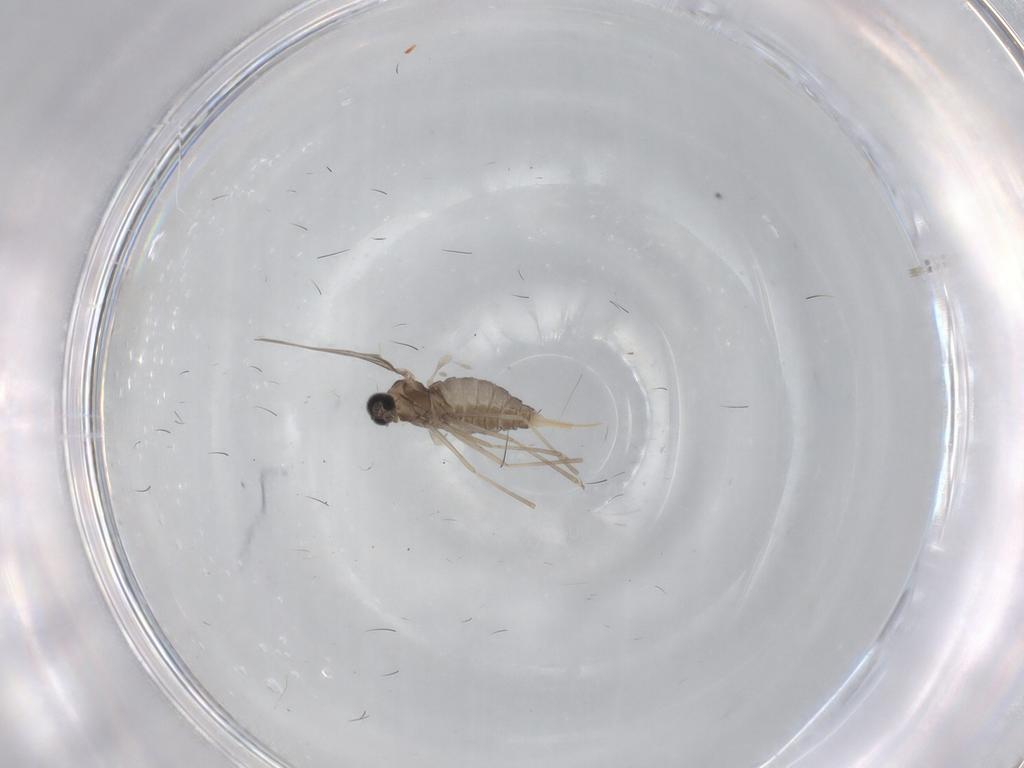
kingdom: Animalia
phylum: Arthropoda
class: Insecta
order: Diptera
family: Cecidomyiidae
